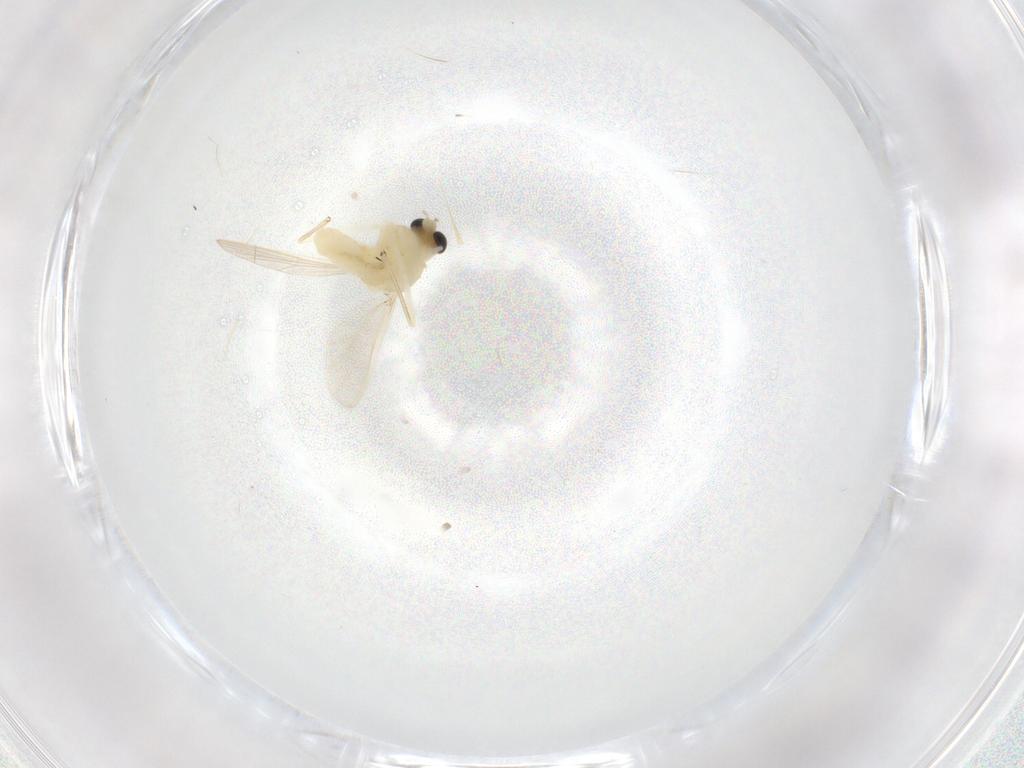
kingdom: Animalia
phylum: Arthropoda
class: Insecta
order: Diptera
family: Chironomidae
